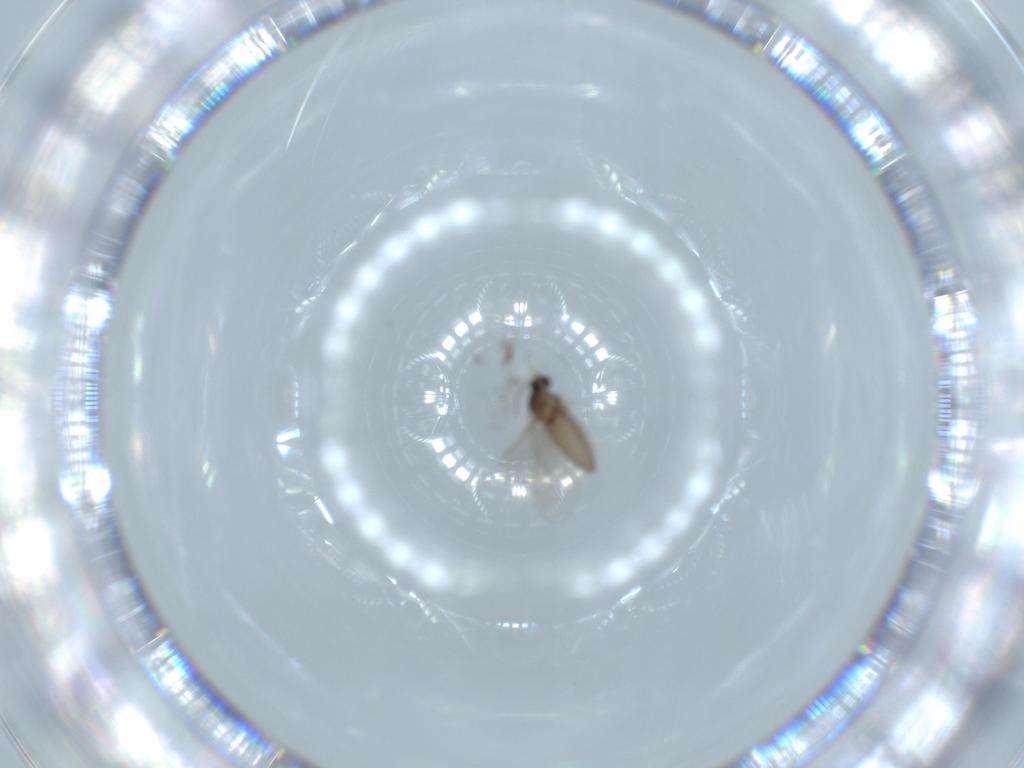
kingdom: Animalia
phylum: Arthropoda
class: Insecta
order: Diptera
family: Cecidomyiidae
